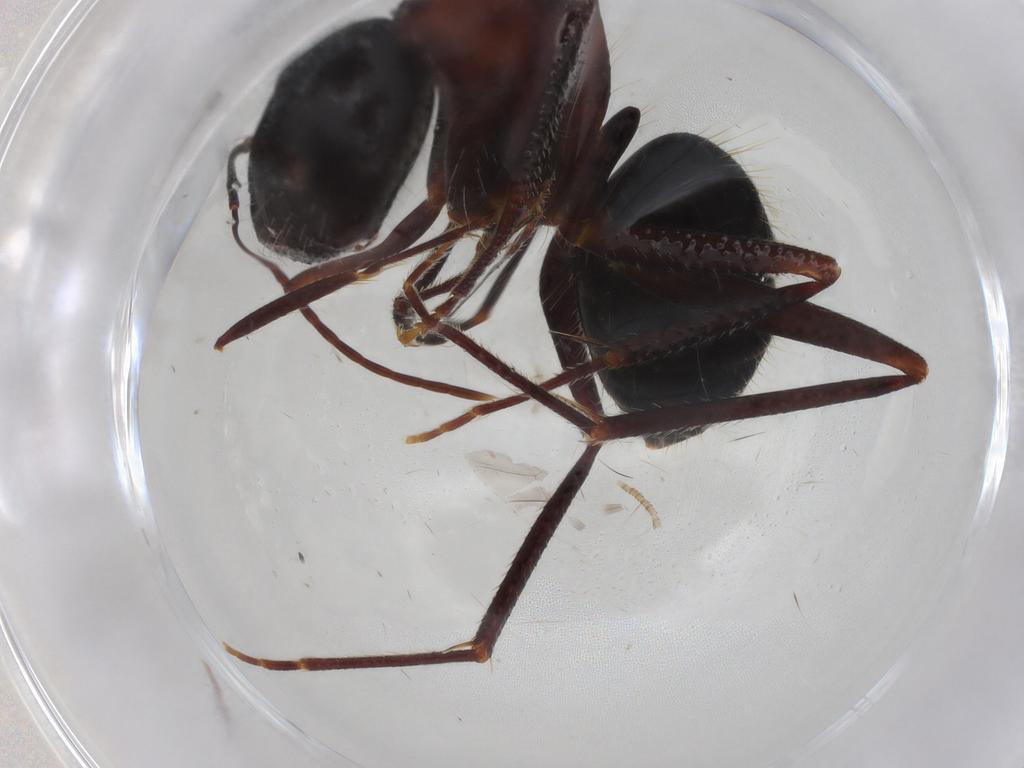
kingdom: Animalia
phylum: Arthropoda
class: Insecta
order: Hymenoptera
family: Formicidae
